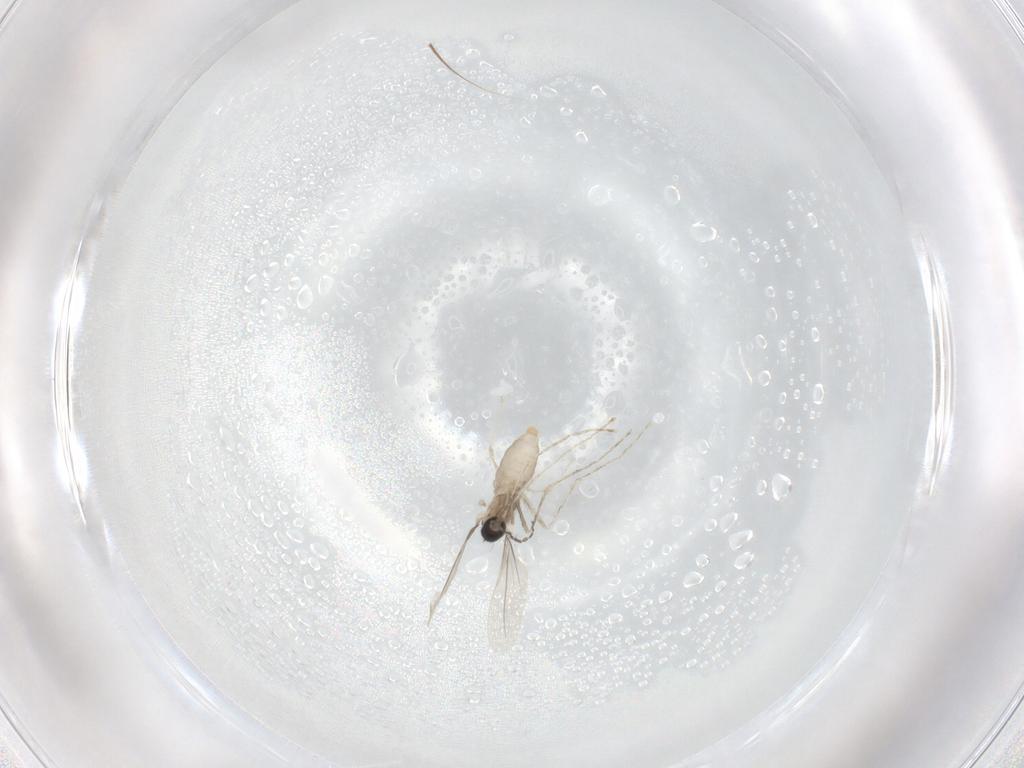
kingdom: Animalia
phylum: Arthropoda
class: Insecta
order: Diptera
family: Cecidomyiidae
